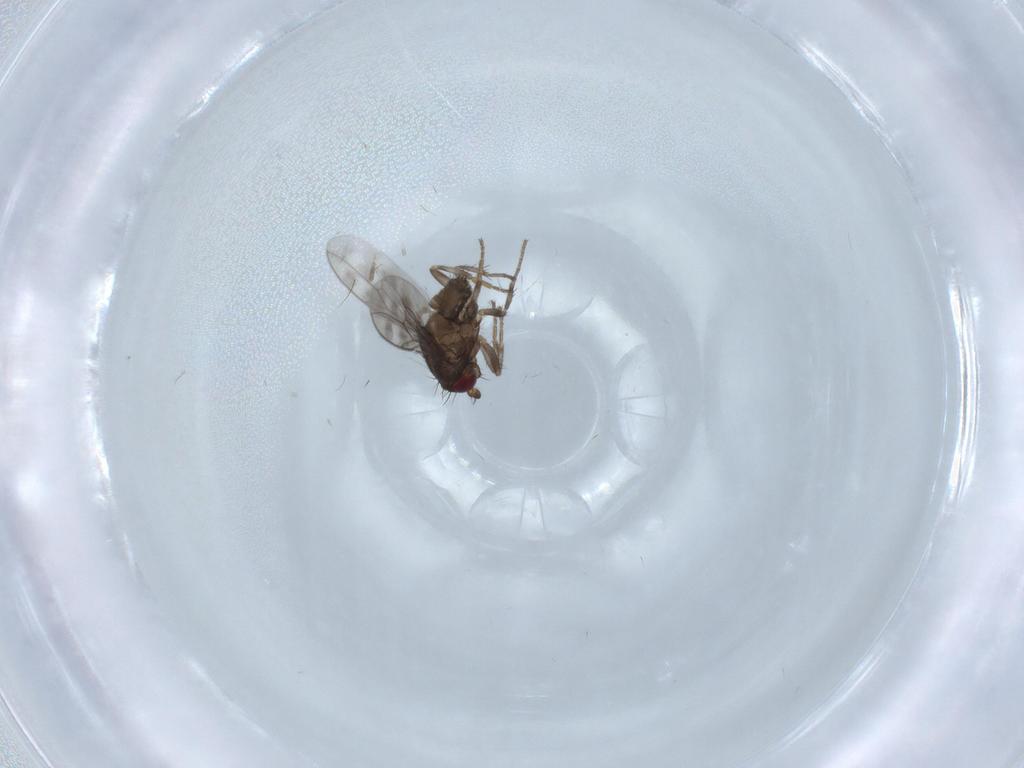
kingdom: Animalia
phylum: Arthropoda
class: Insecta
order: Diptera
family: Sphaeroceridae
